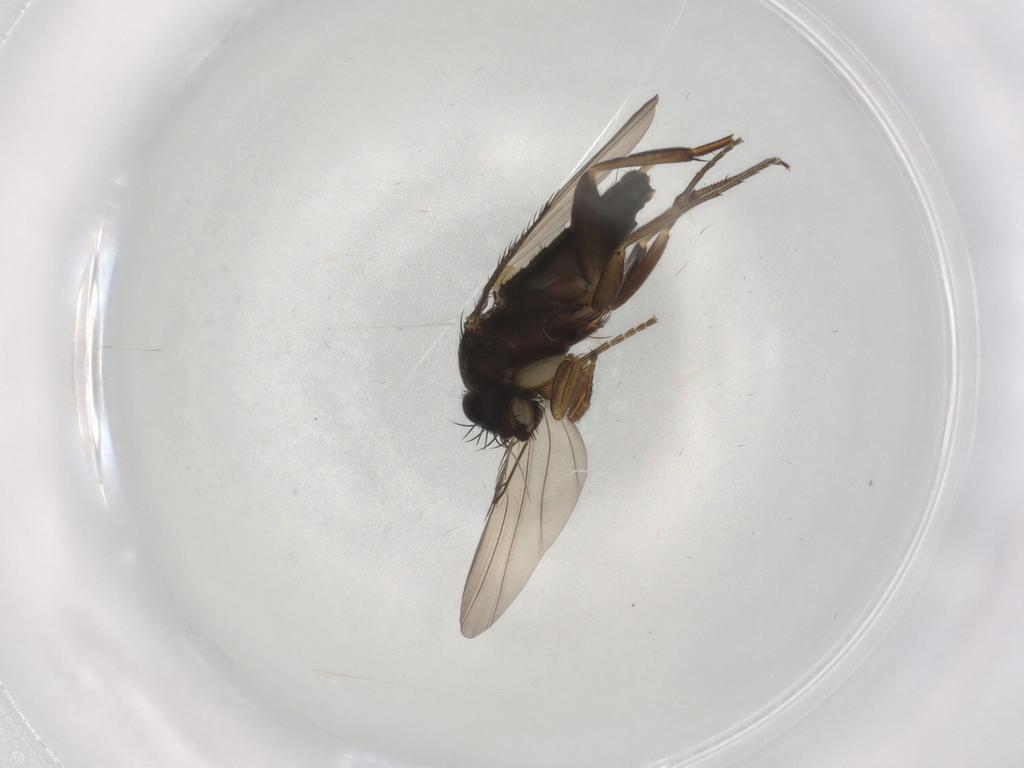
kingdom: Animalia
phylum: Arthropoda
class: Insecta
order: Diptera
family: Phoridae
